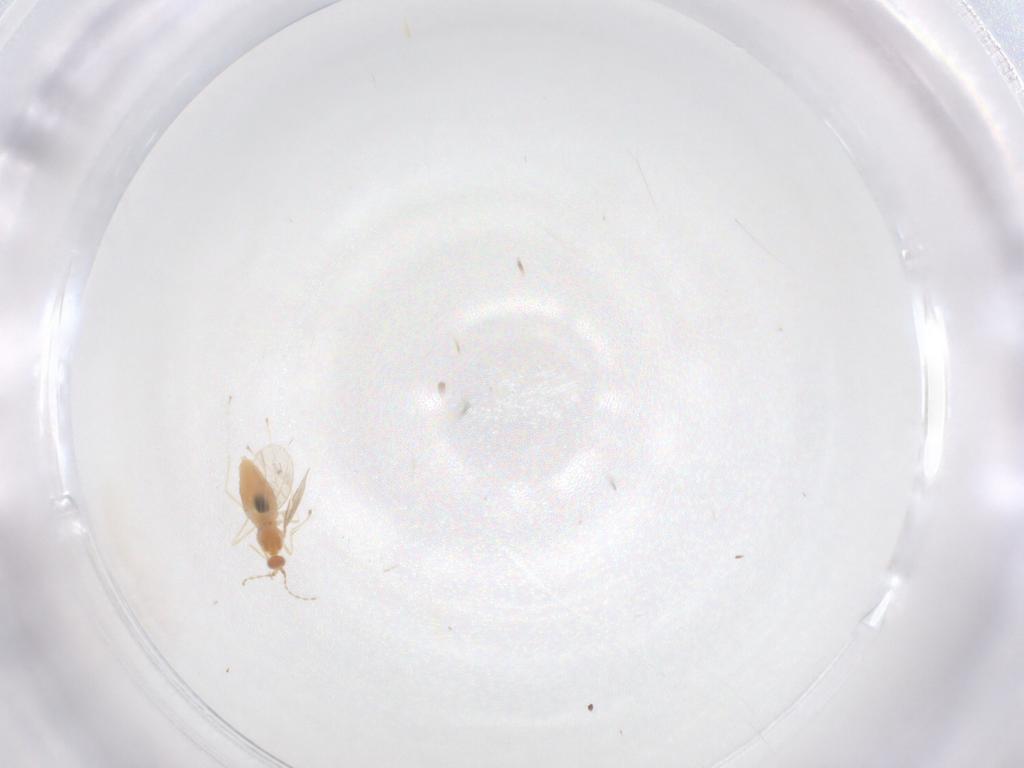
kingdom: Animalia
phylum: Arthropoda
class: Insecta
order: Diptera
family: Cecidomyiidae
